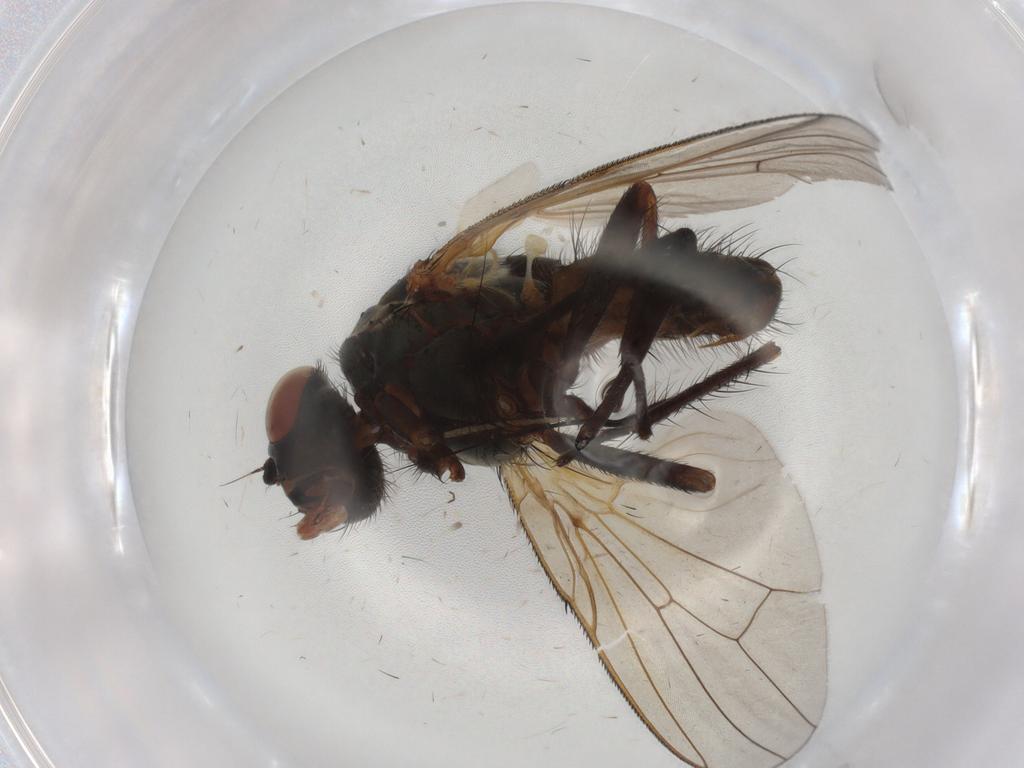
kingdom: Animalia
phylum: Arthropoda
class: Insecta
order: Diptera
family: Anthomyiidae
